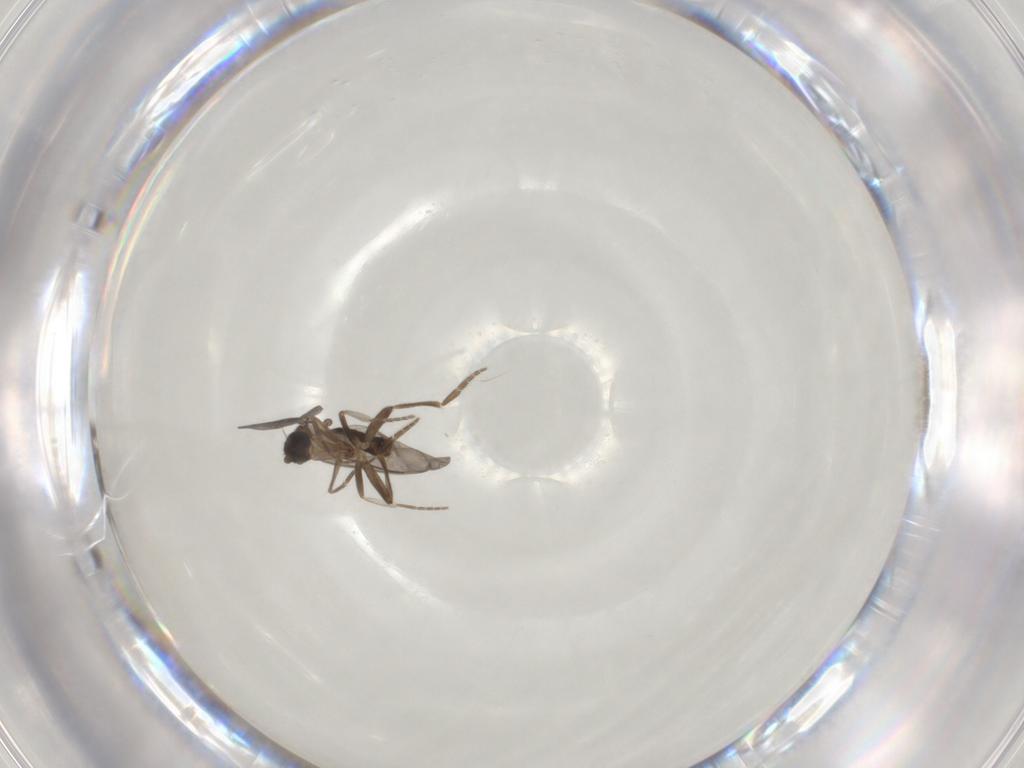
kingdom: Animalia
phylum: Arthropoda
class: Insecta
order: Diptera
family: Phoridae
